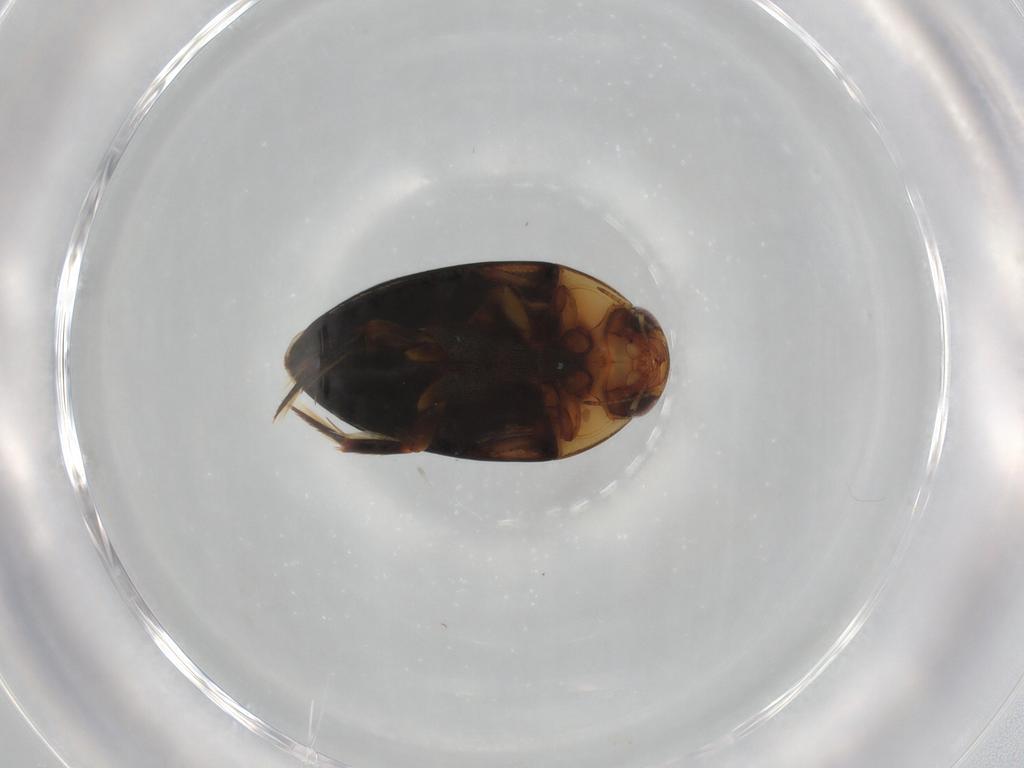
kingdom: Animalia
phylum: Arthropoda
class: Insecta
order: Coleoptera
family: Noteridae
